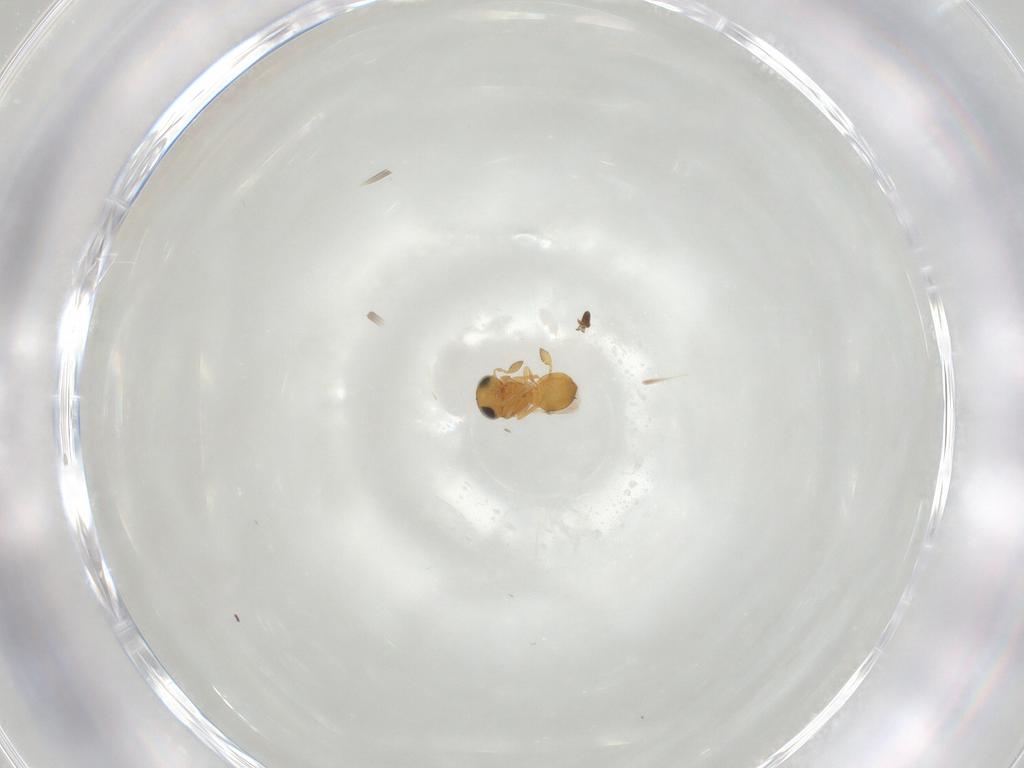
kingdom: Animalia
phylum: Arthropoda
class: Insecta
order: Hymenoptera
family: Crabronidae
